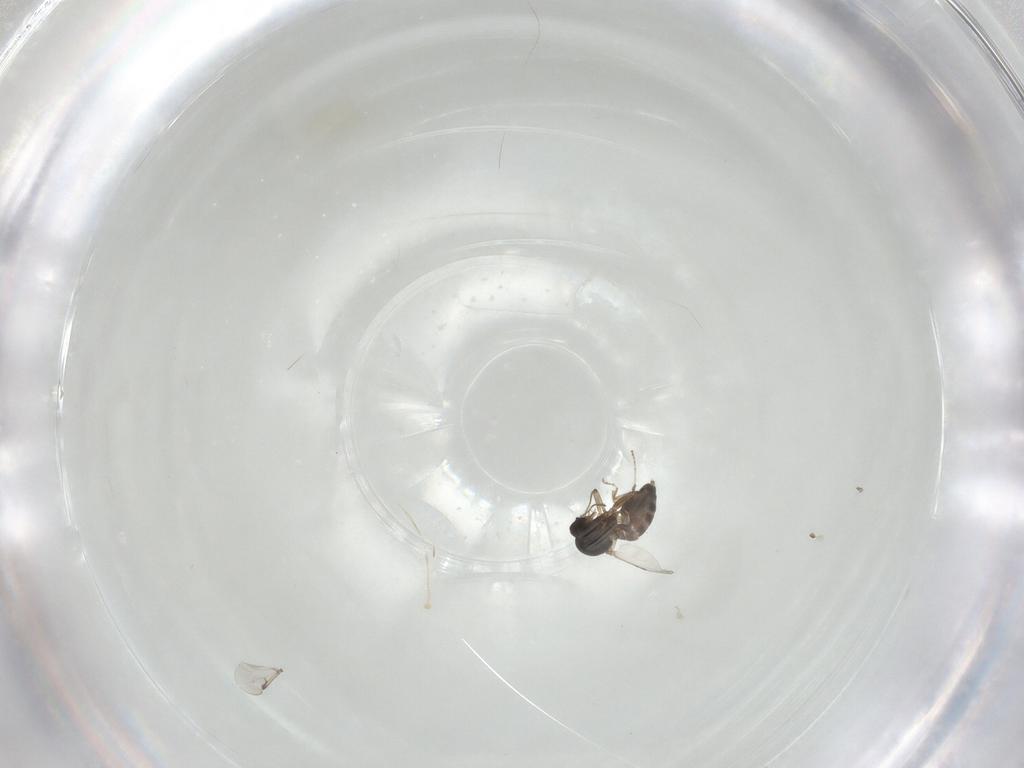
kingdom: Animalia
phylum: Arthropoda
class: Insecta
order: Diptera
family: Ceratopogonidae
